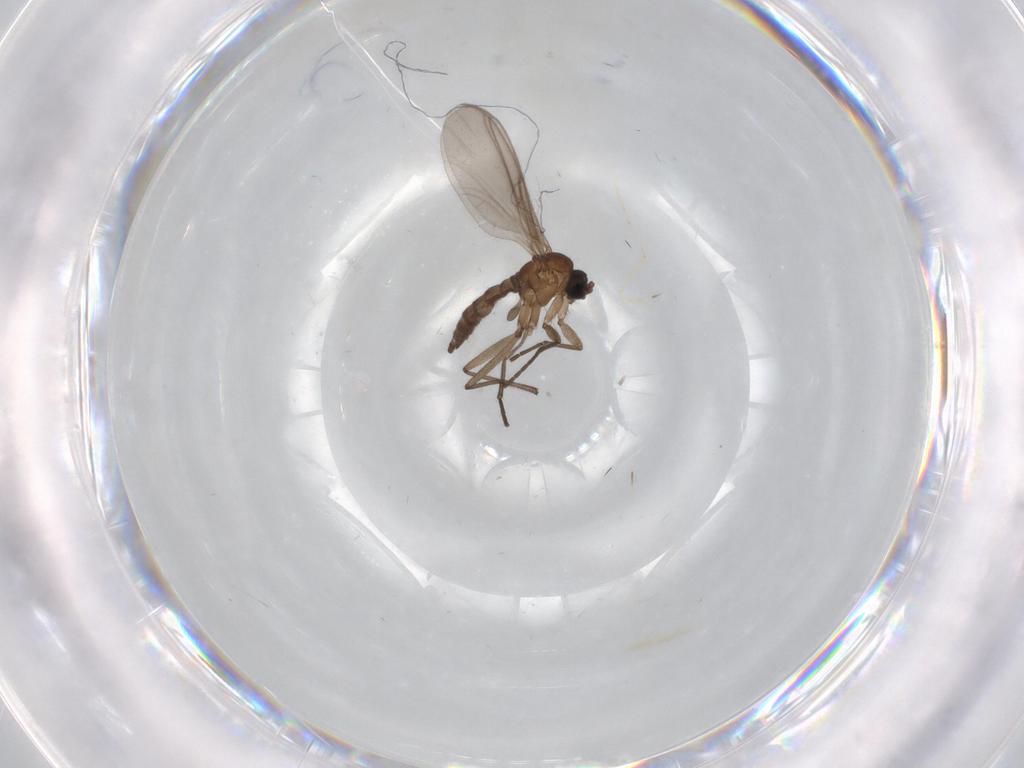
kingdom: Animalia
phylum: Arthropoda
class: Insecta
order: Diptera
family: Chironomidae
